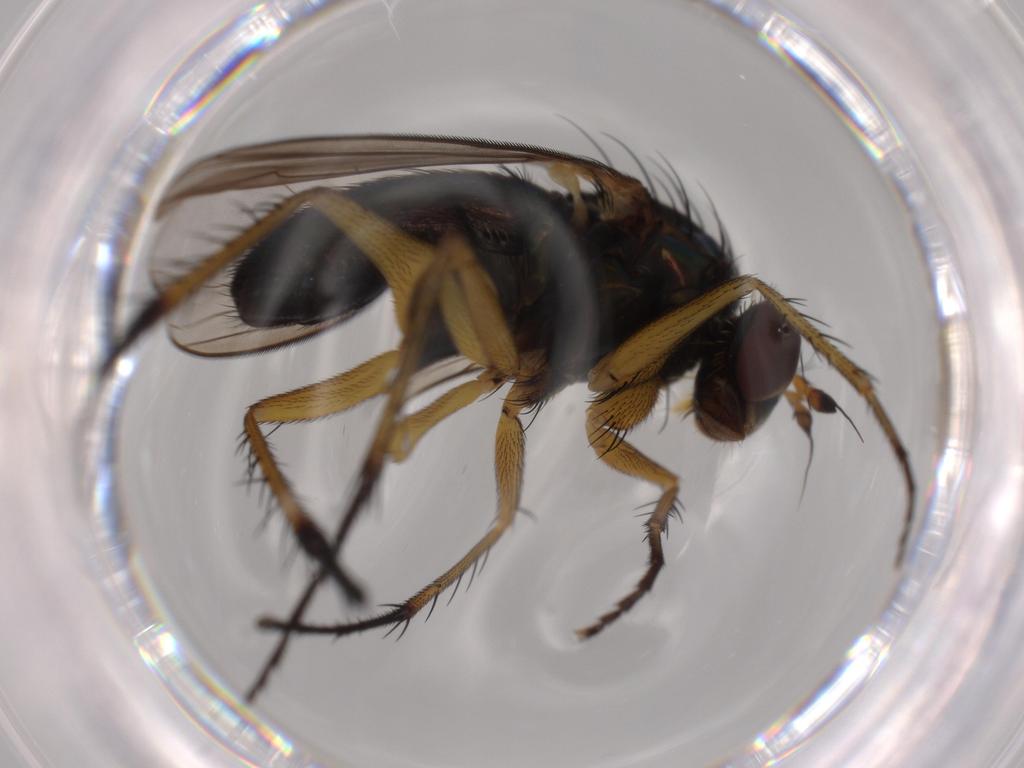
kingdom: Animalia
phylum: Arthropoda
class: Insecta
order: Diptera
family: Dolichopodidae
